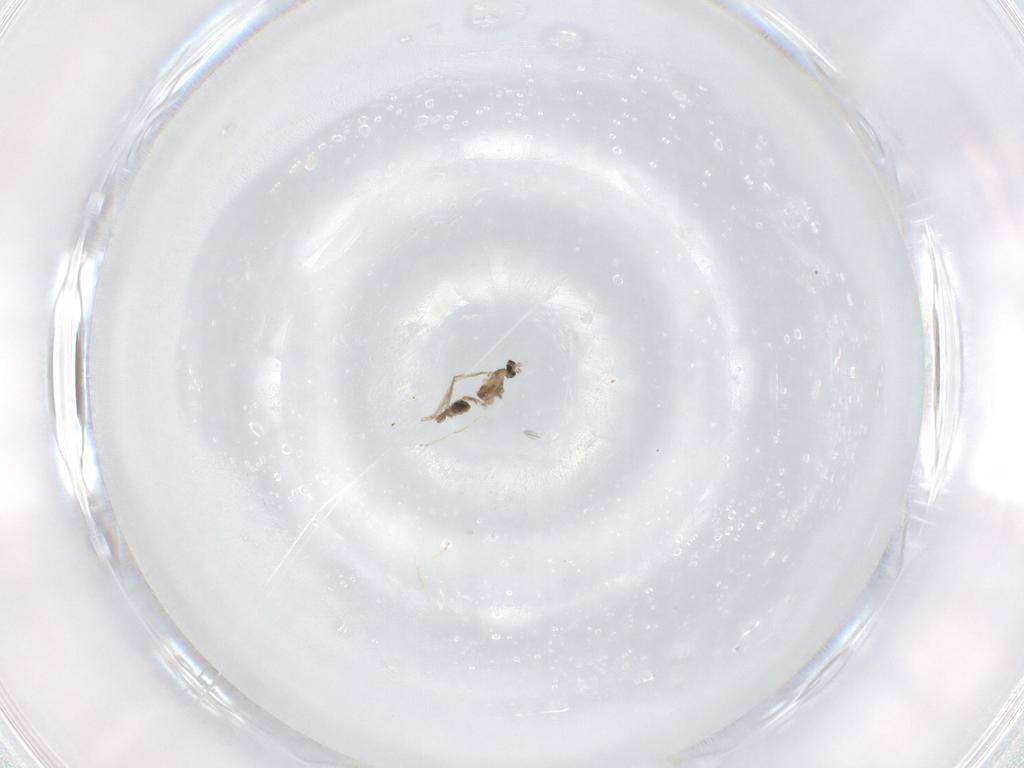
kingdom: Animalia
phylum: Arthropoda
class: Insecta
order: Diptera
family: Cecidomyiidae
